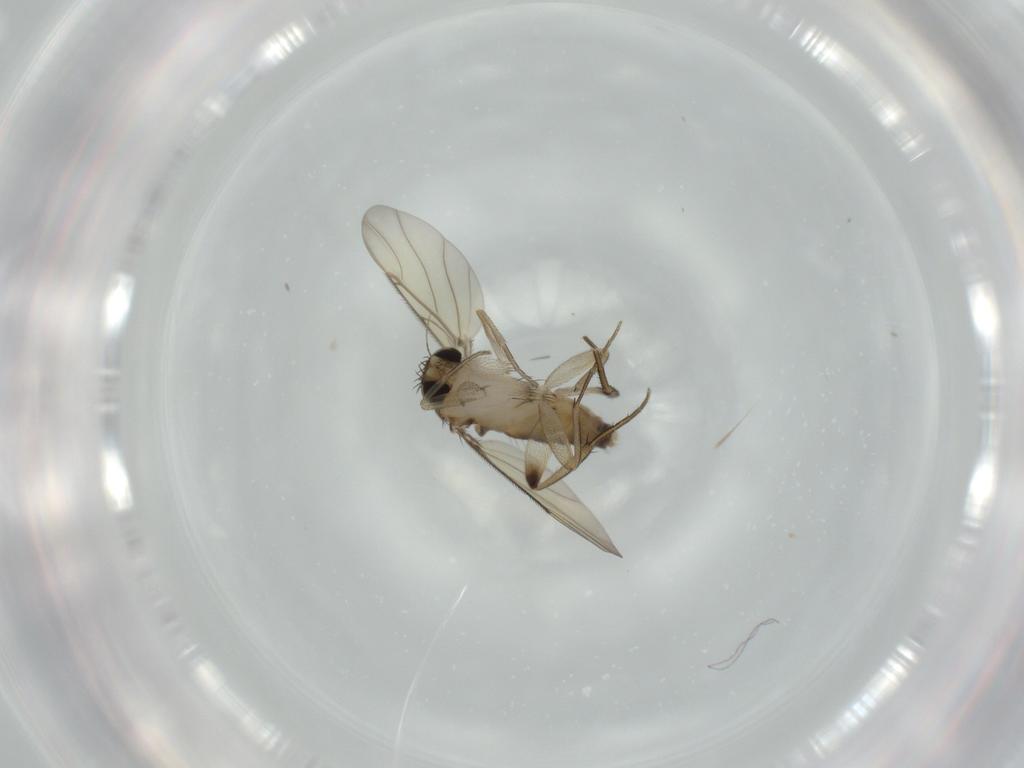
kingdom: Animalia
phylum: Arthropoda
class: Insecta
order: Diptera
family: Phoridae
